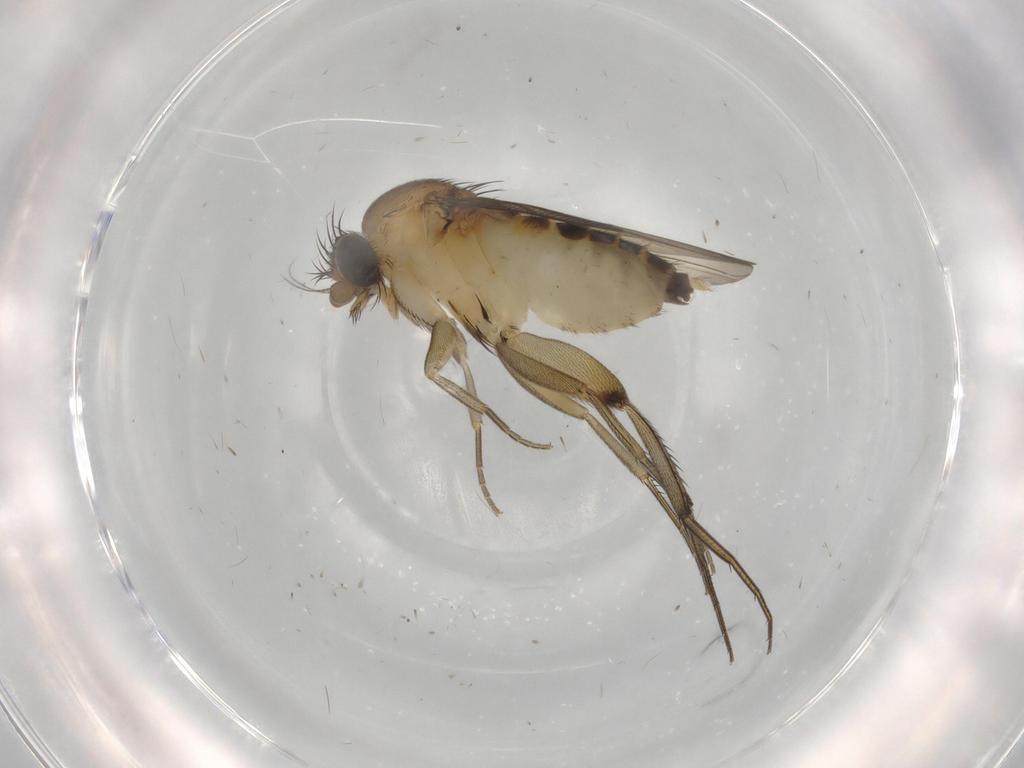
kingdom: Animalia
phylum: Arthropoda
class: Insecta
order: Diptera
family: Phoridae
